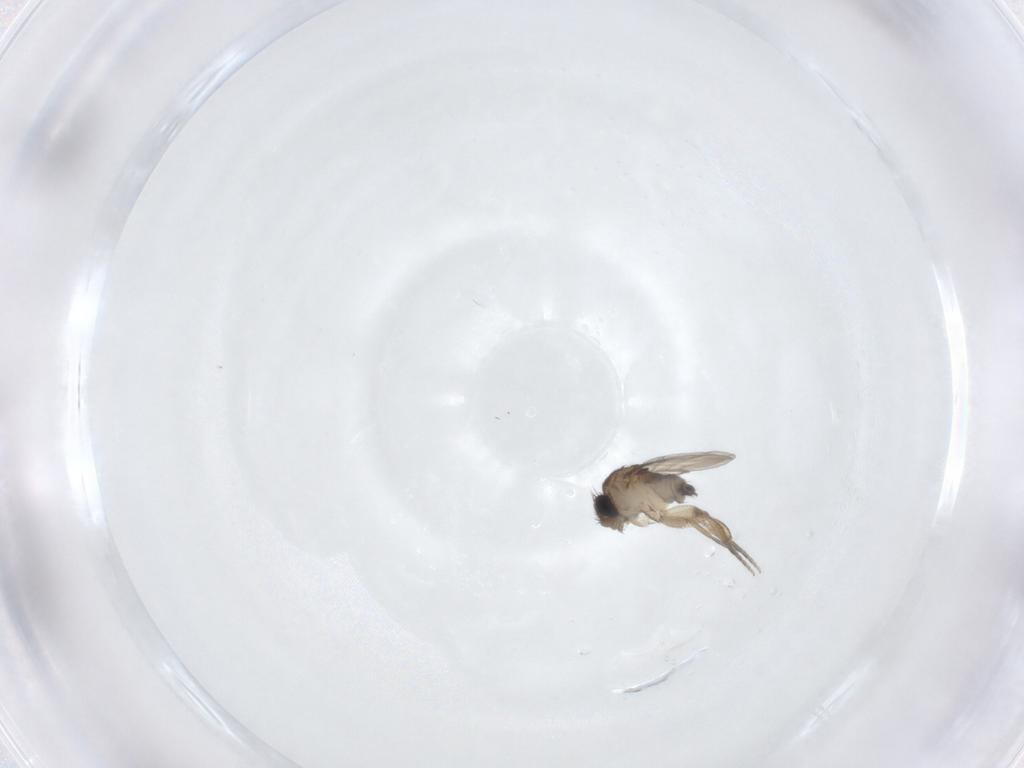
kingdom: Animalia
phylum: Arthropoda
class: Insecta
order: Diptera
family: Phoridae
